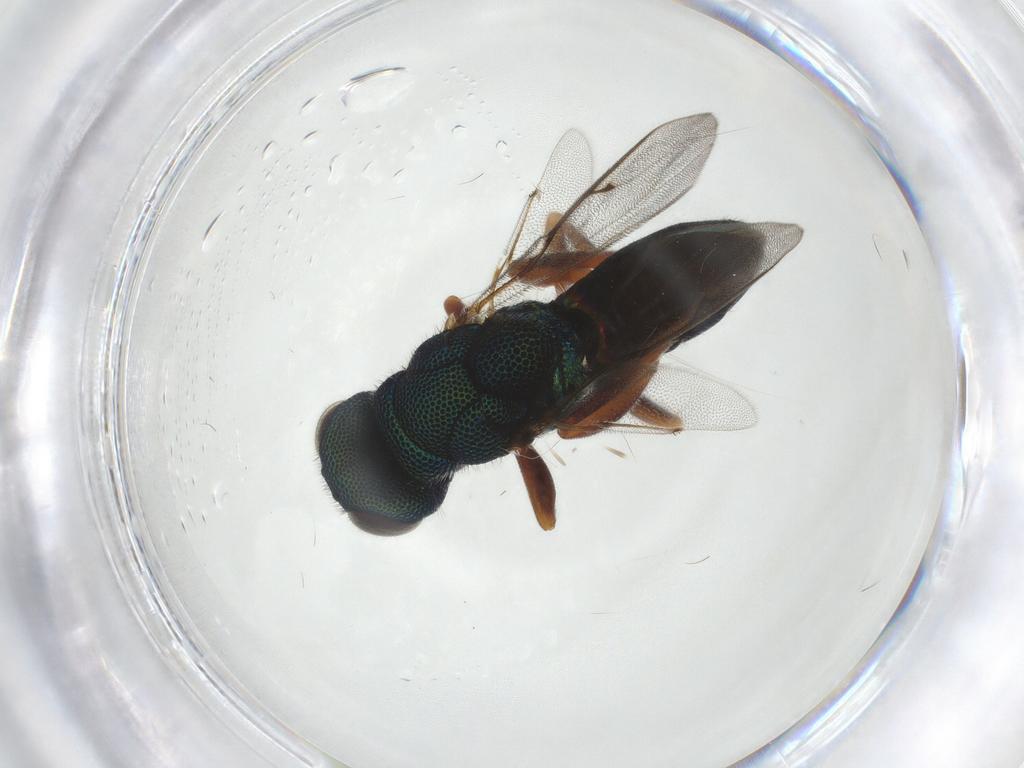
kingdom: Animalia
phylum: Arthropoda
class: Insecta
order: Hymenoptera
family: Lyciscidae
